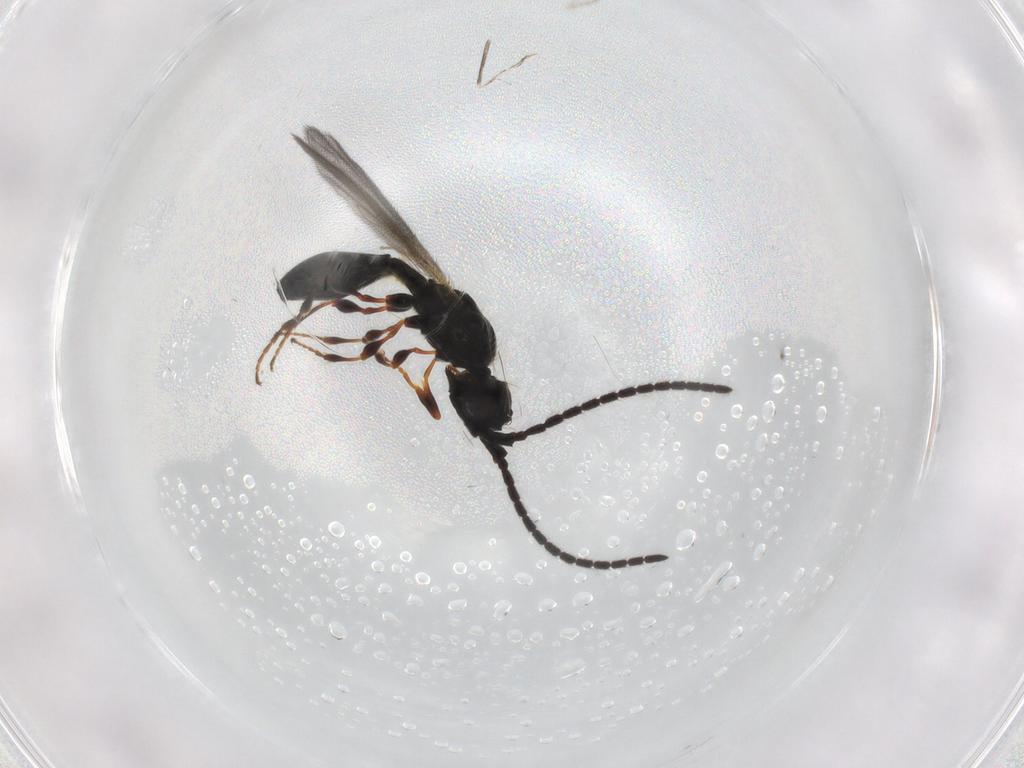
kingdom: Animalia
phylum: Arthropoda
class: Insecta
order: Hymenoptera
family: Diapriidae
